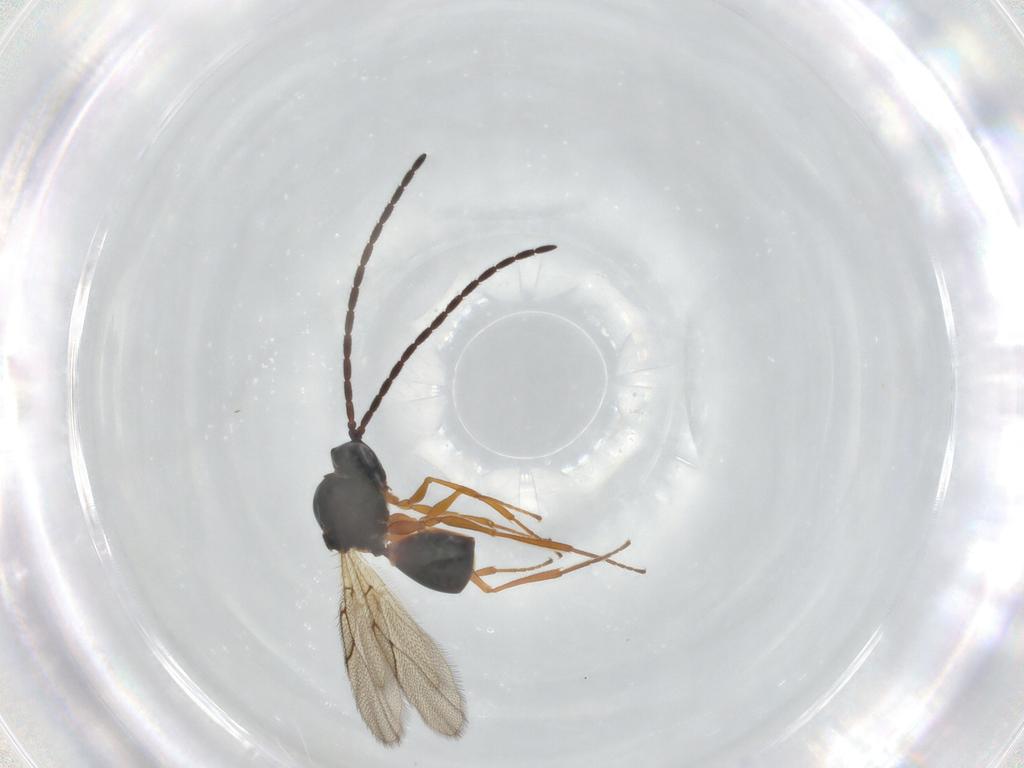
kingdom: Animalia
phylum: Arthropoda
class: Insecta
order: Hymenoptera
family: Figitidae
